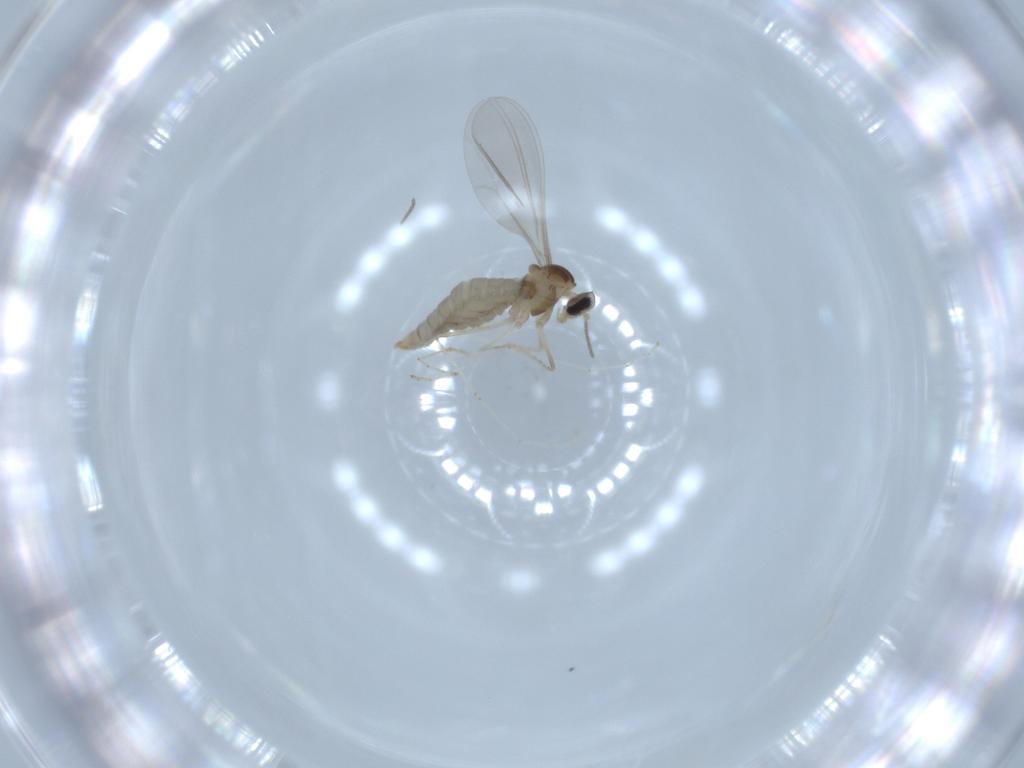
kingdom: Animalia
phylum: Arthropoda
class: Insecta
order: Diptera
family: Cecidomyiidae
